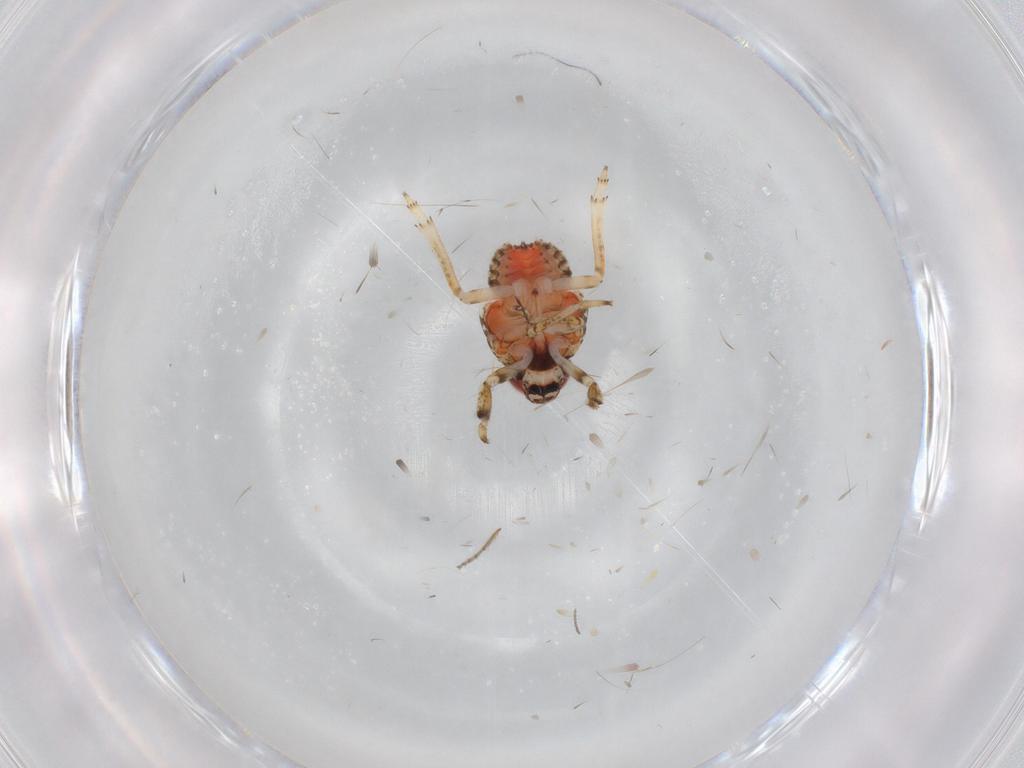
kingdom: Animalia
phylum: Arthropoda
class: Insecta
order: Hemiptera
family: Issidae
